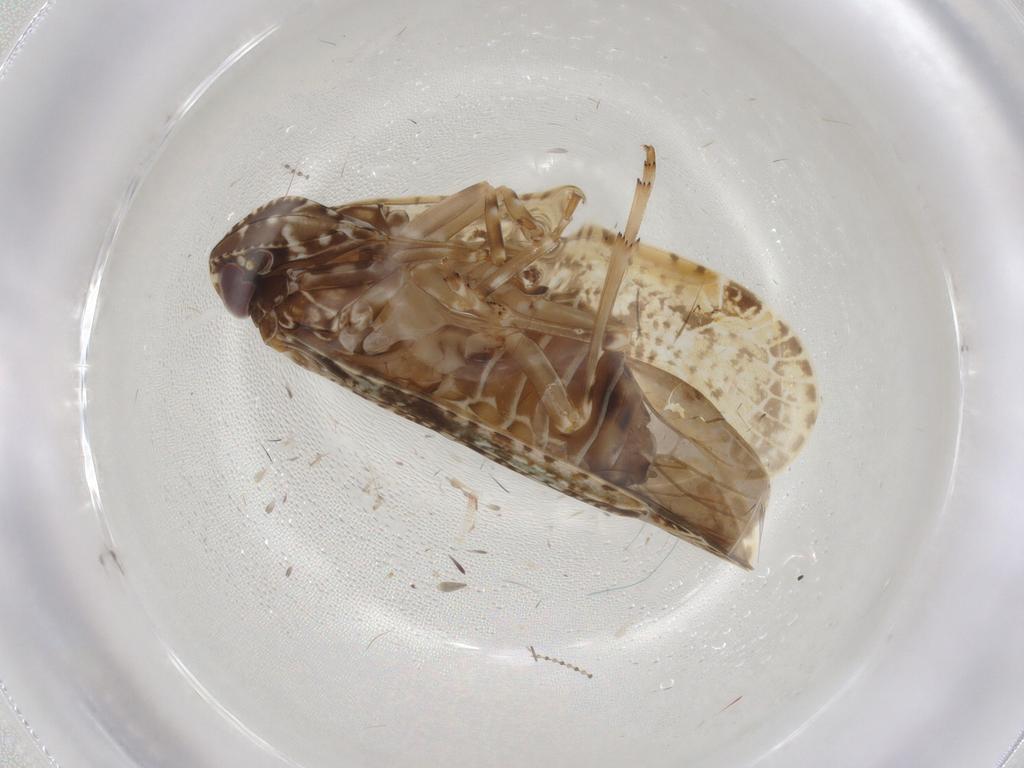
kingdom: Animalia
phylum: Arthropoda
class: Insecta
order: Hemiptera
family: Achilidae
